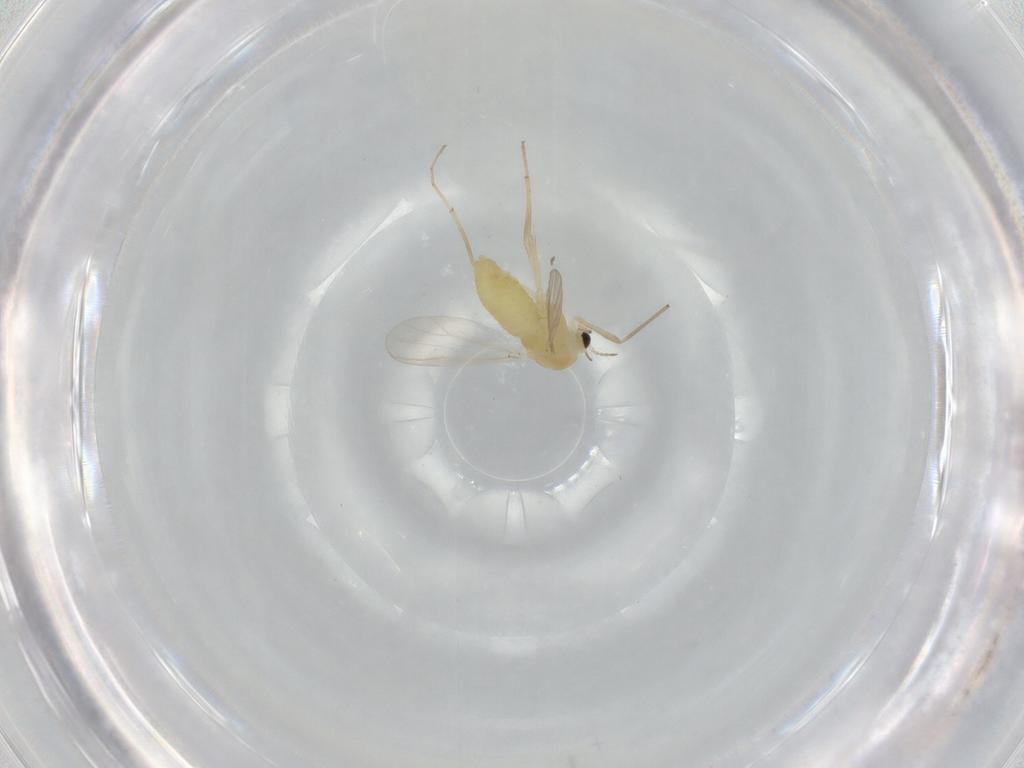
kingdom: Animalia
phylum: Arthropoda
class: Insecta
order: Diptera
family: Chironomidae
